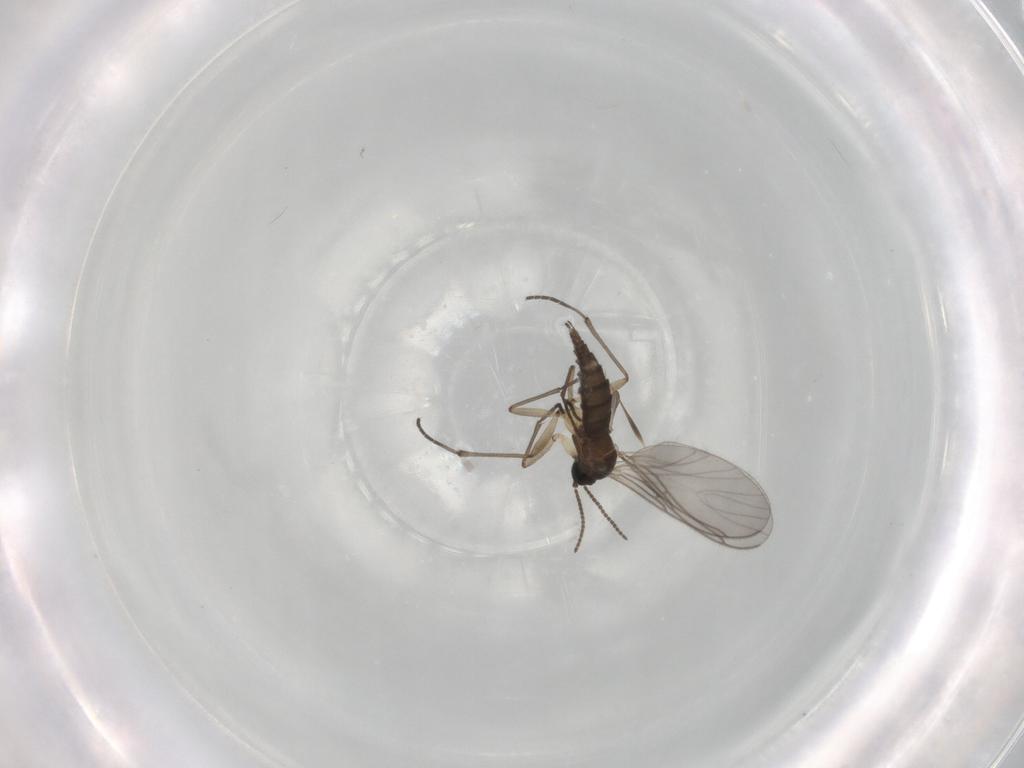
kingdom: Animalia
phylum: Arthropoda
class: Insecta
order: Diptera
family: Sciaridae
